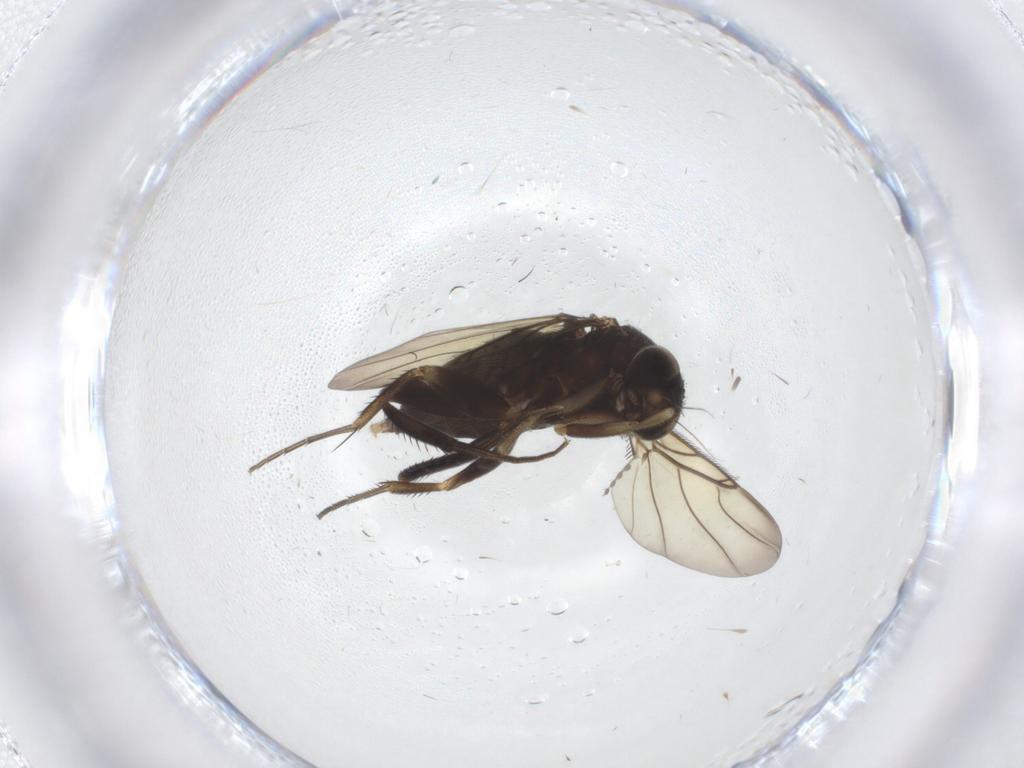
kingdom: Animalia
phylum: Arthropoda
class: Insecta
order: Diptera
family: Phoridae
